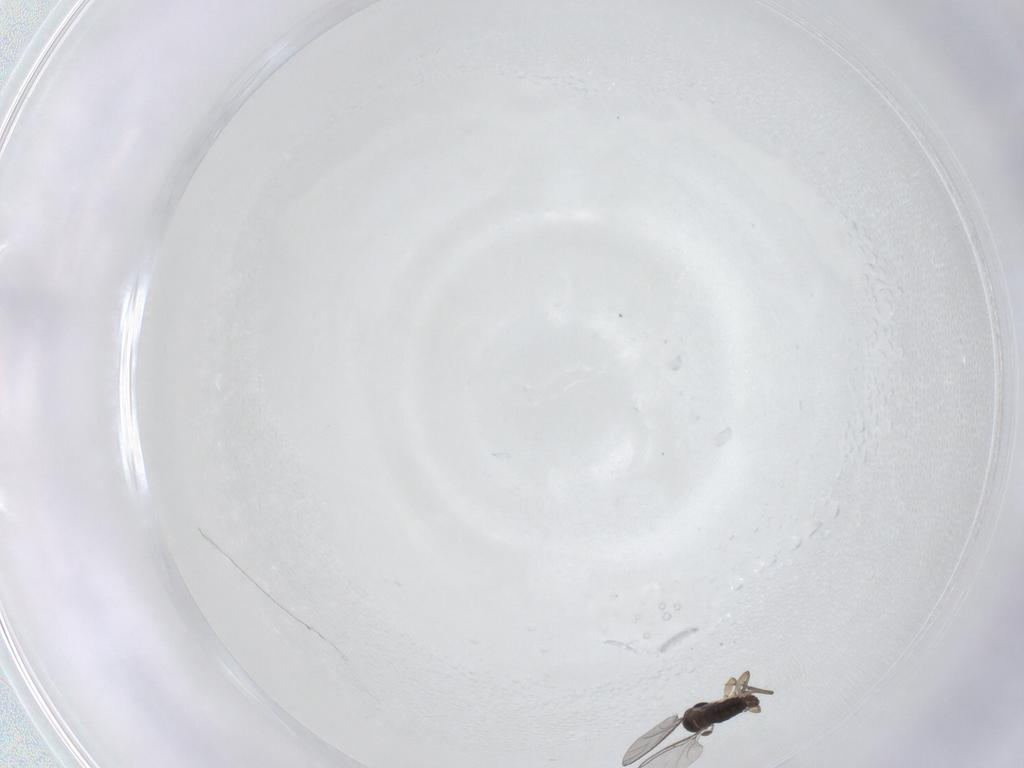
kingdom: Animalia
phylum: Arthropoda
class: Insecta
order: Diptera
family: Sciaridae
